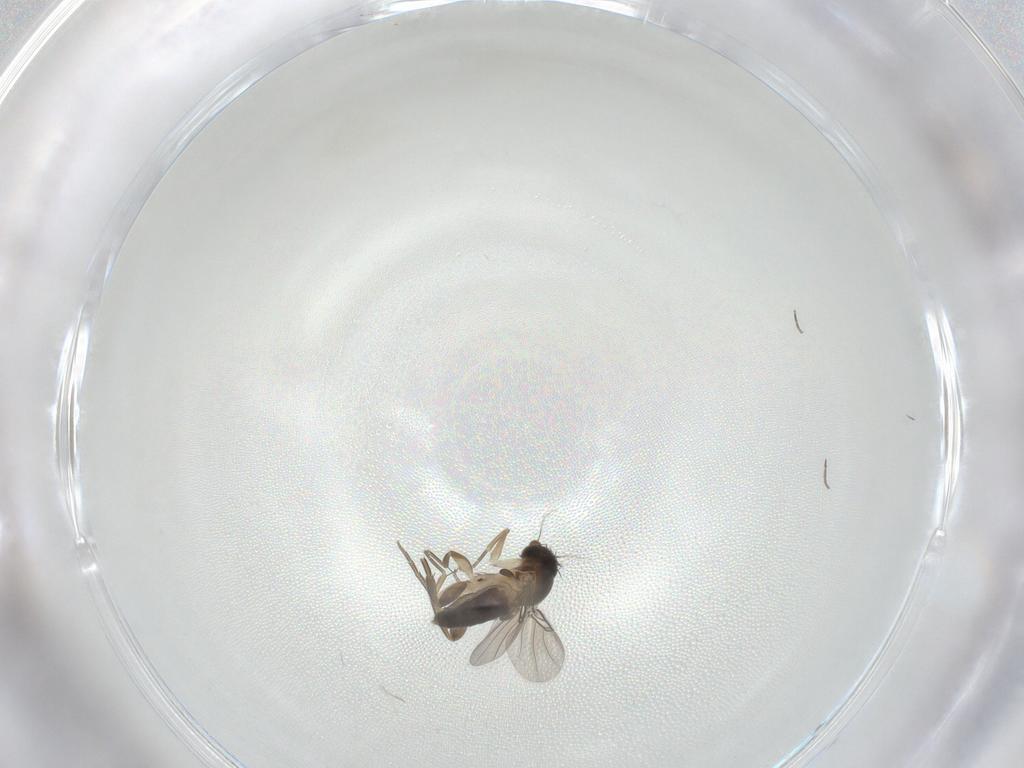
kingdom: Animalia
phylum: Arthropoda
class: Insecta
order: Diptera
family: Phoridae
